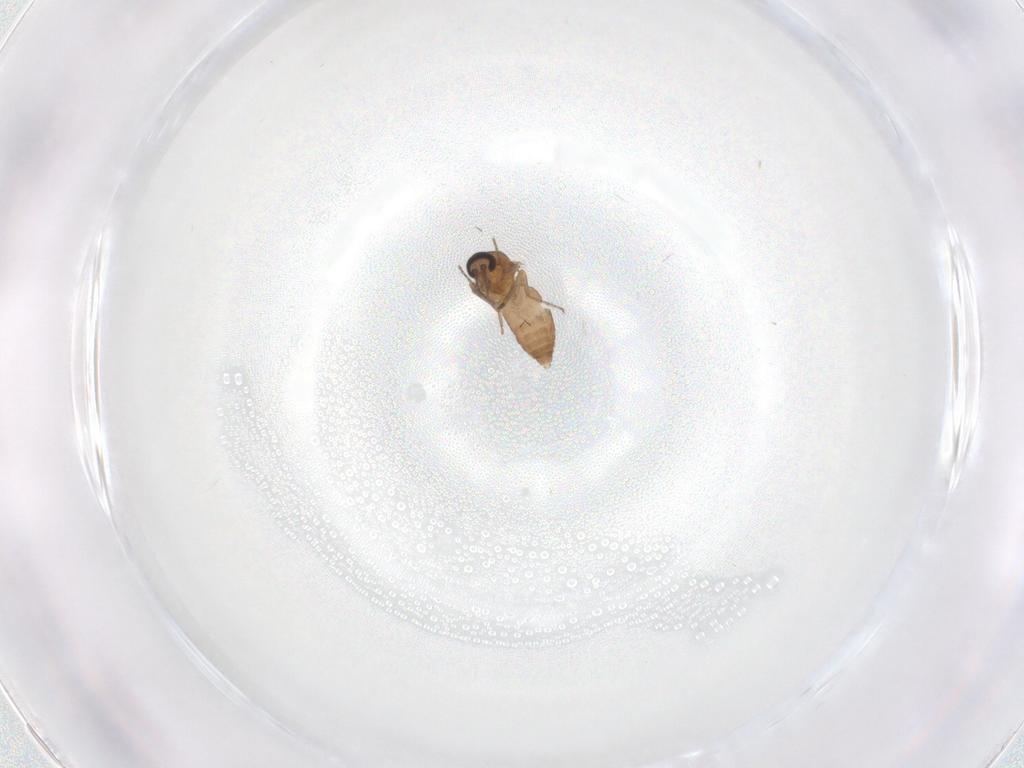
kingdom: Animalia
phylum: Arthropoda
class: Insecta
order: Diptera
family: Ceratopogonidae
